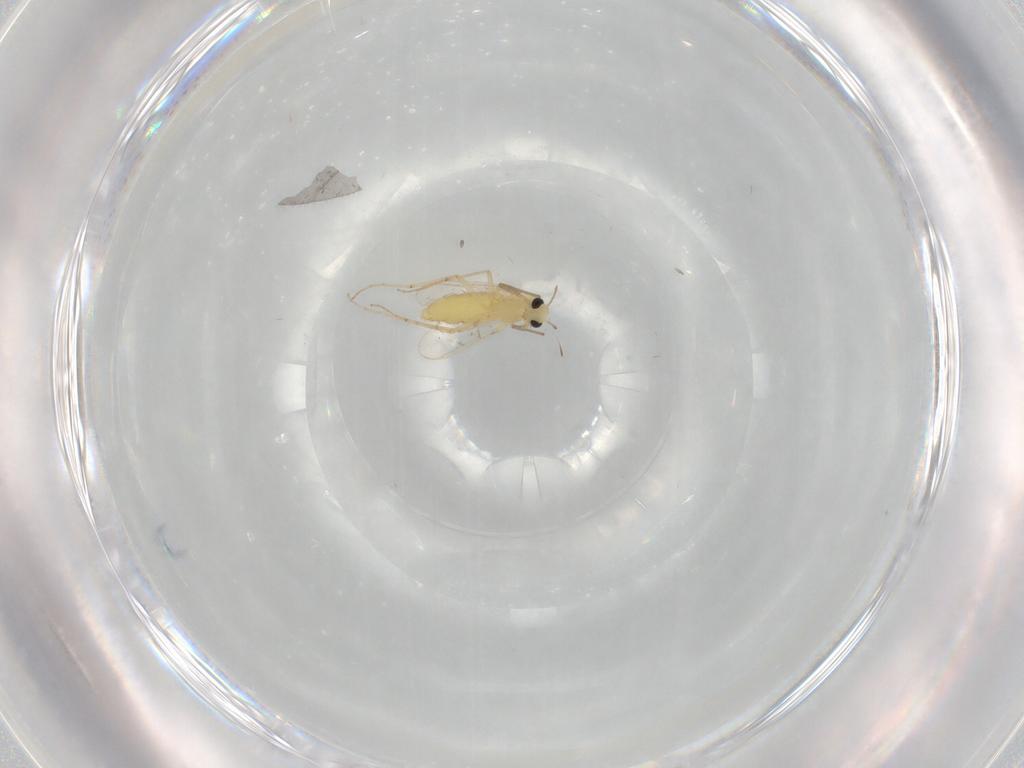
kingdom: Animalia
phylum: Arthropoda
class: Insecta
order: Diptera
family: Chironomidae
